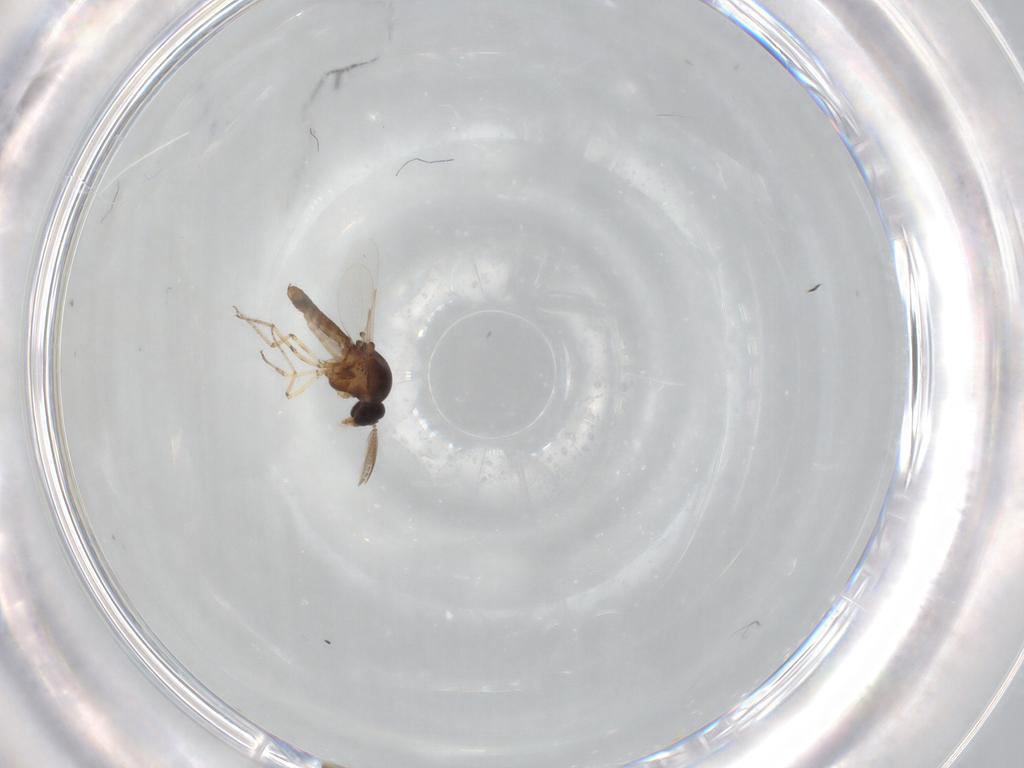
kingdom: Animalia
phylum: Arthropoda
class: Insecta
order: Diptera
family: Ceratopogonidae
